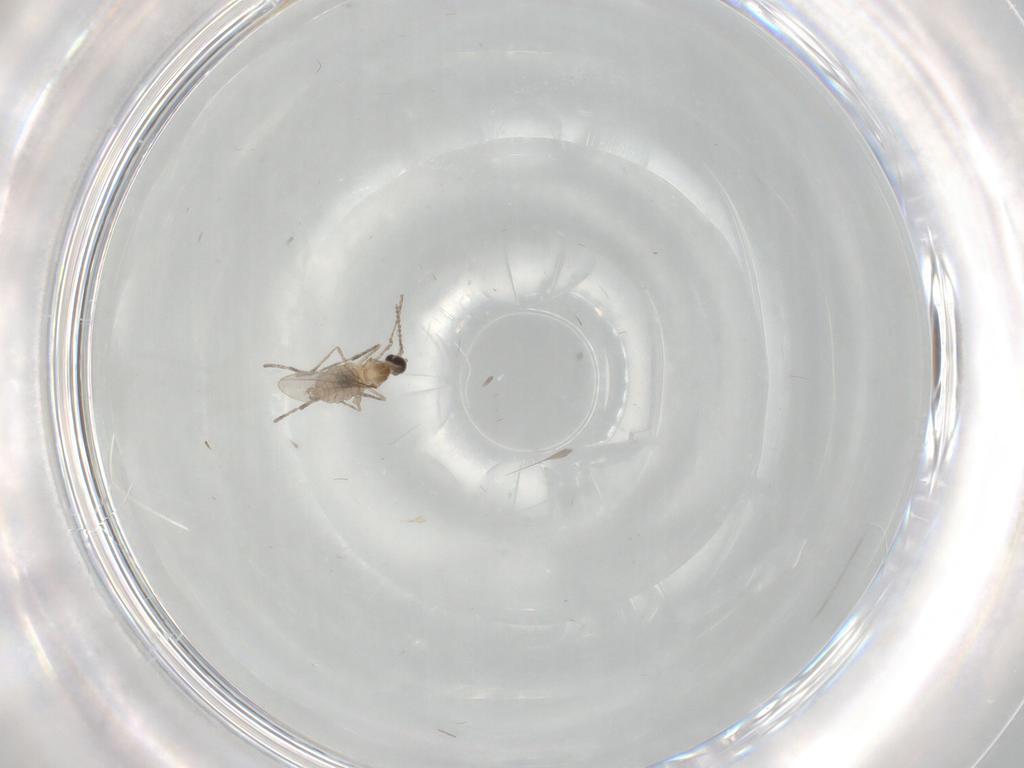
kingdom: Animalia
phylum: Arthropoda
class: Insecta
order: Diptera
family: Cecidomyiidae
